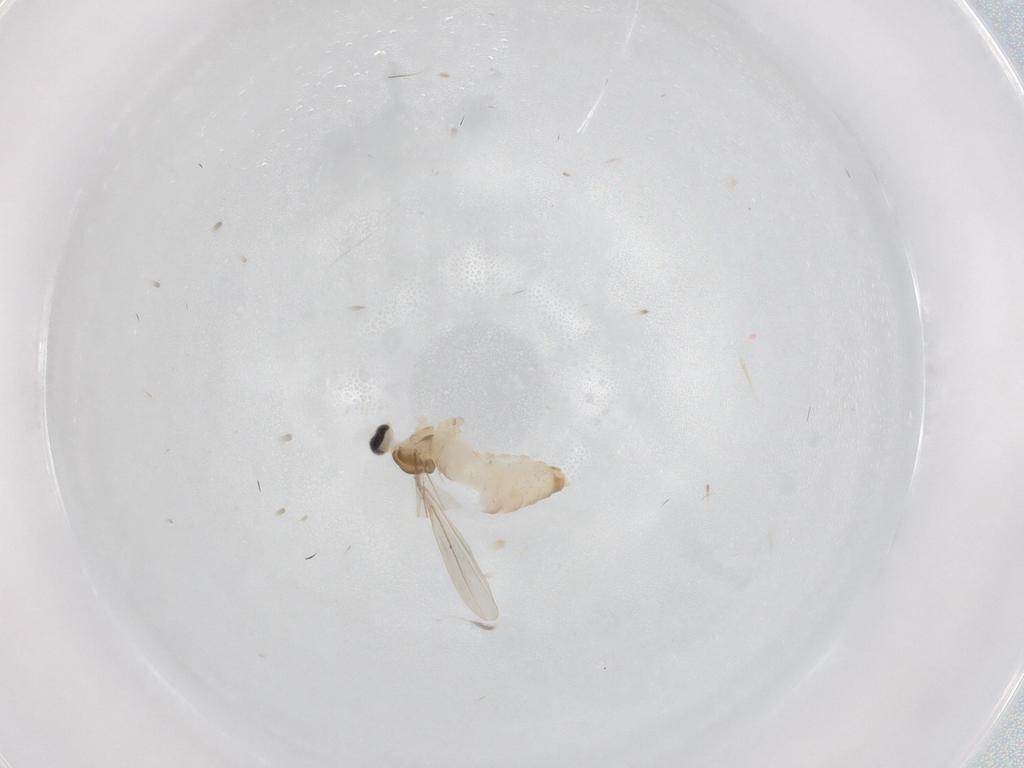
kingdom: Animalia
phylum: Arthropoda
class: Insecta
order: Diptera
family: Cecidomyiidae
